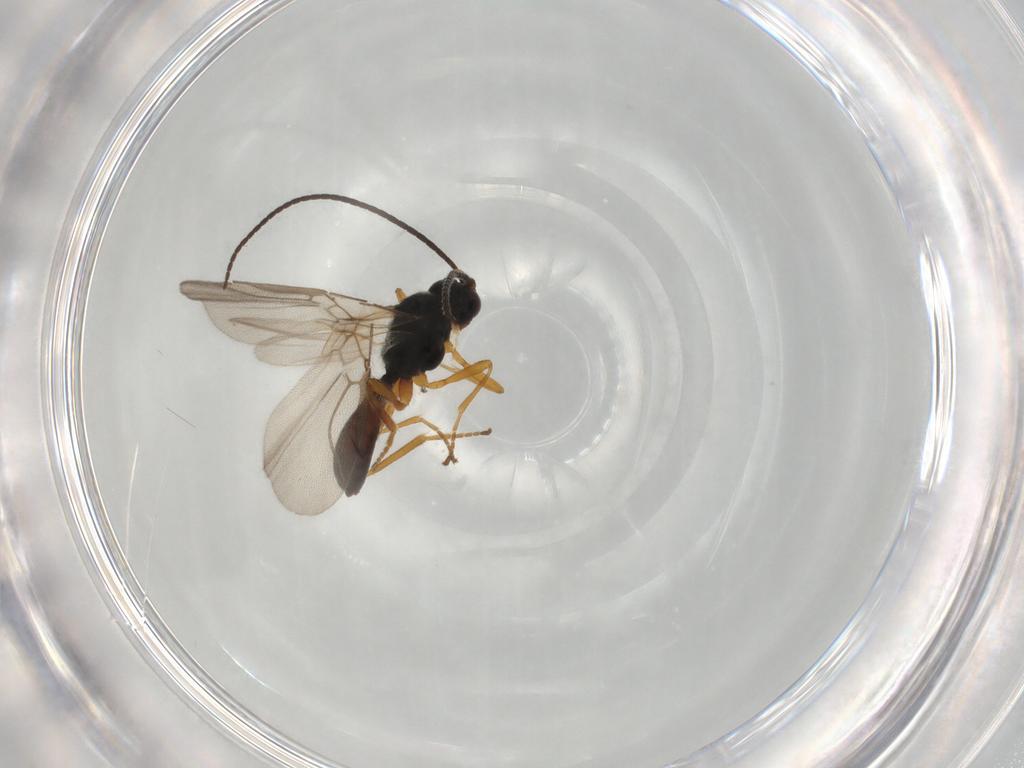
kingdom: Animalia
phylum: Arthropoda
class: Insecta
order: Hymenoptera
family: Braconidae
